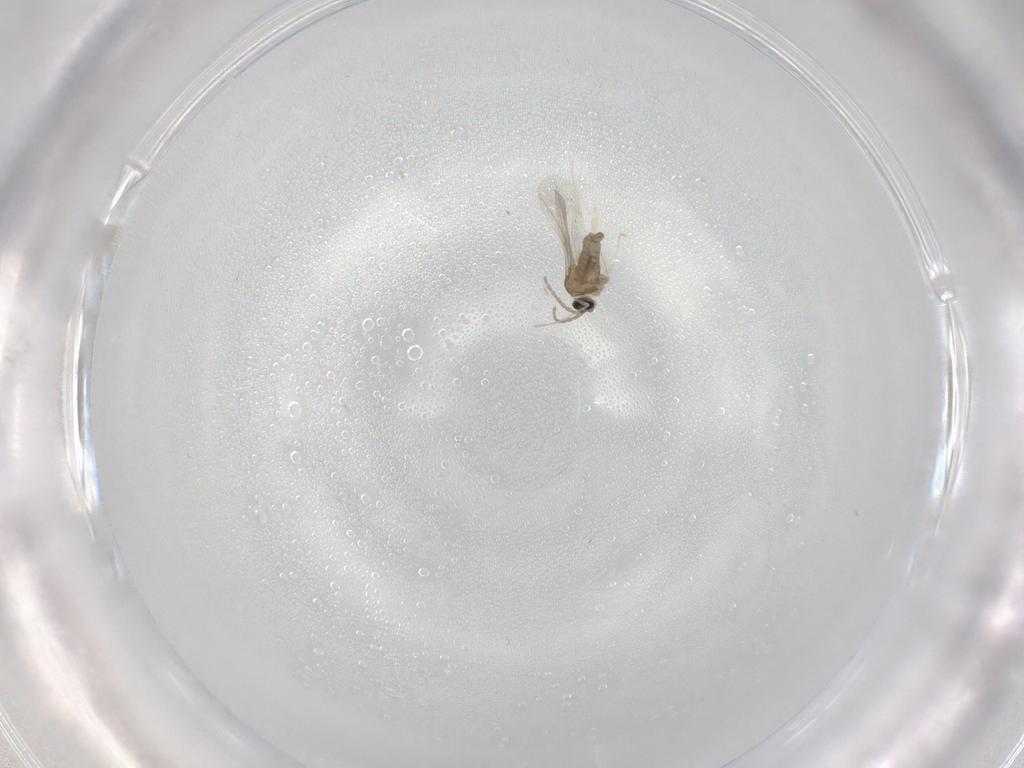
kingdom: Animalia
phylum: Arthropoda
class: Insecta
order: Diptera
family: Cecidomyiidae
